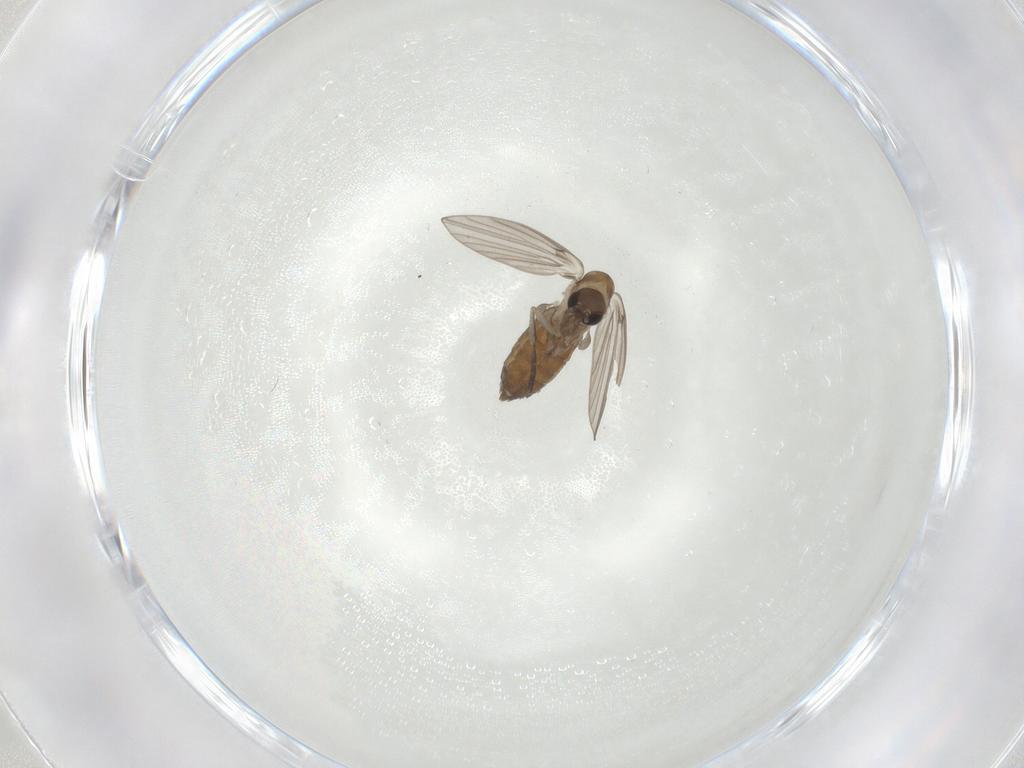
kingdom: Animalia
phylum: Arthropoda
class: Insecta
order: Diptera
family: Psychodidae
